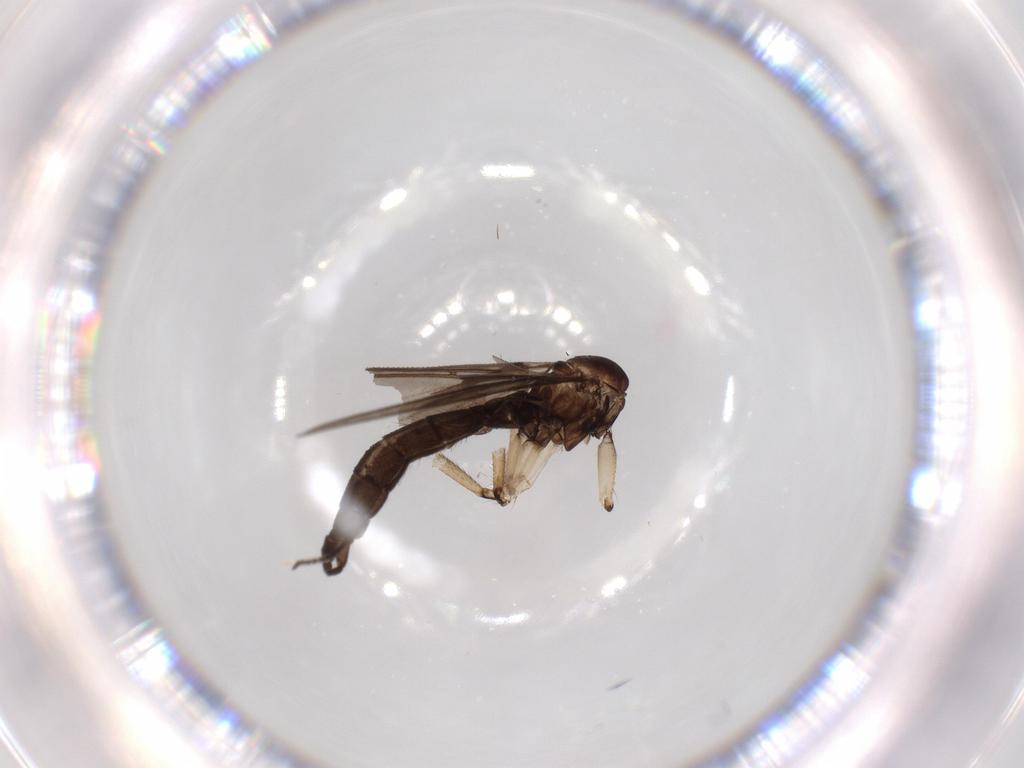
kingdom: Animalia
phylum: Arthropoda
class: Insecta
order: Diptera
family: Sciaridae
